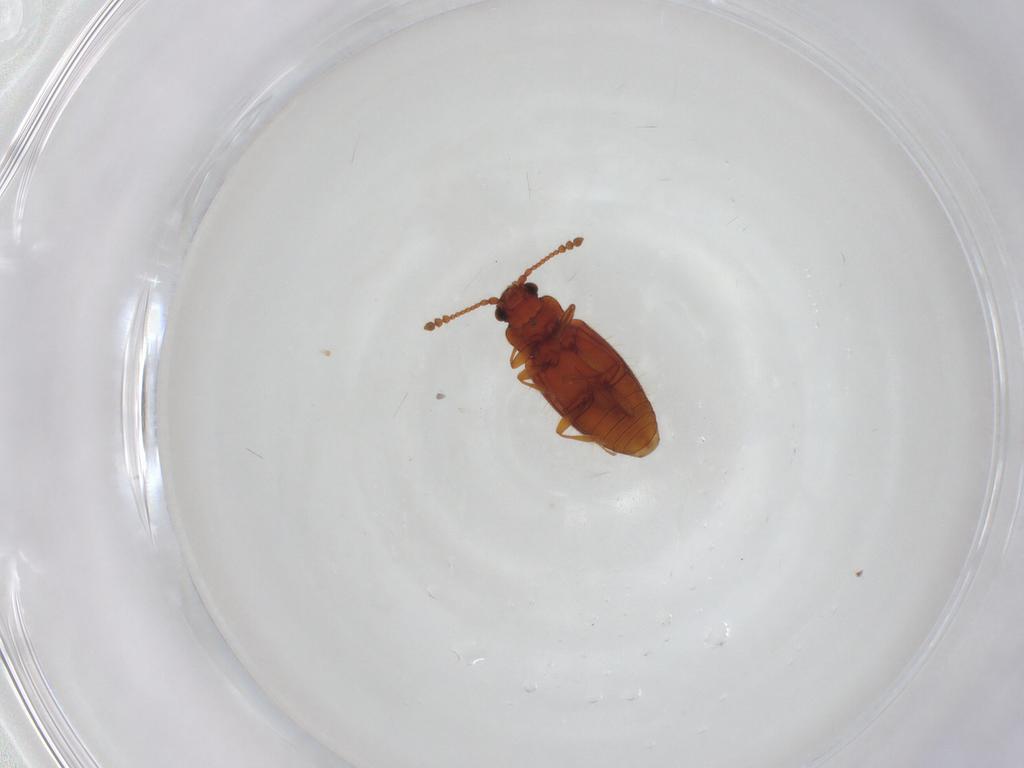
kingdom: Animalia
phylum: Arthropoda
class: Insecta
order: Coleoptera
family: Cryptophagidae
